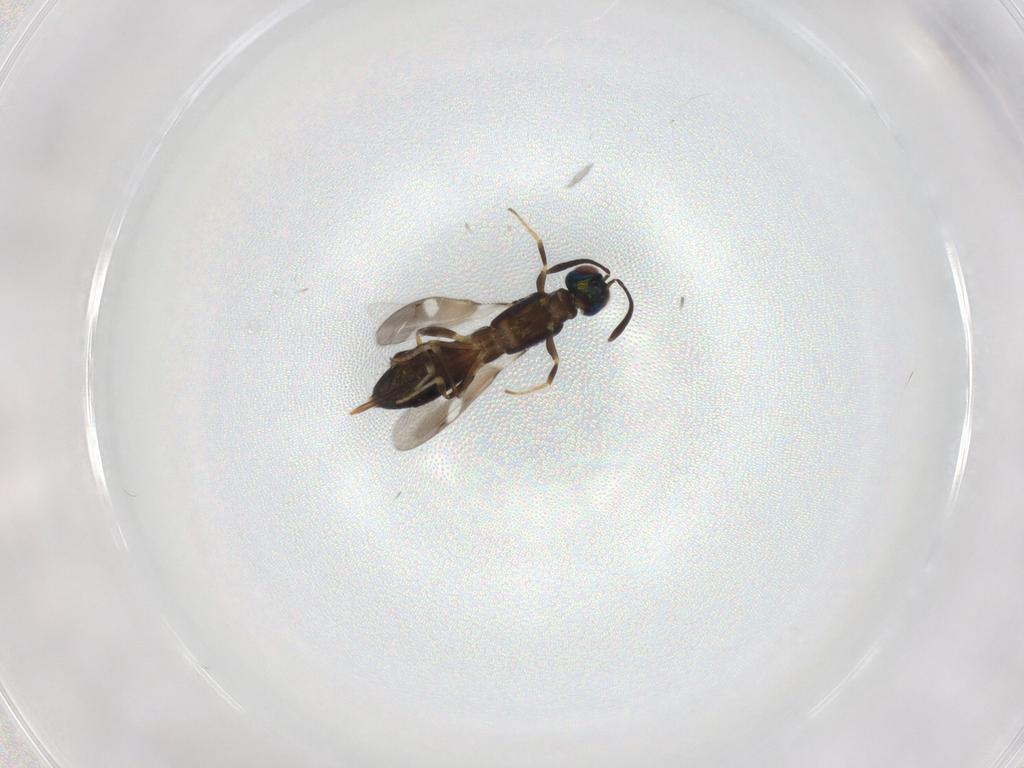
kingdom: Animalia
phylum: Arthropoda
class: Insecta
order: Hymenoptera
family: Eupelmidae
